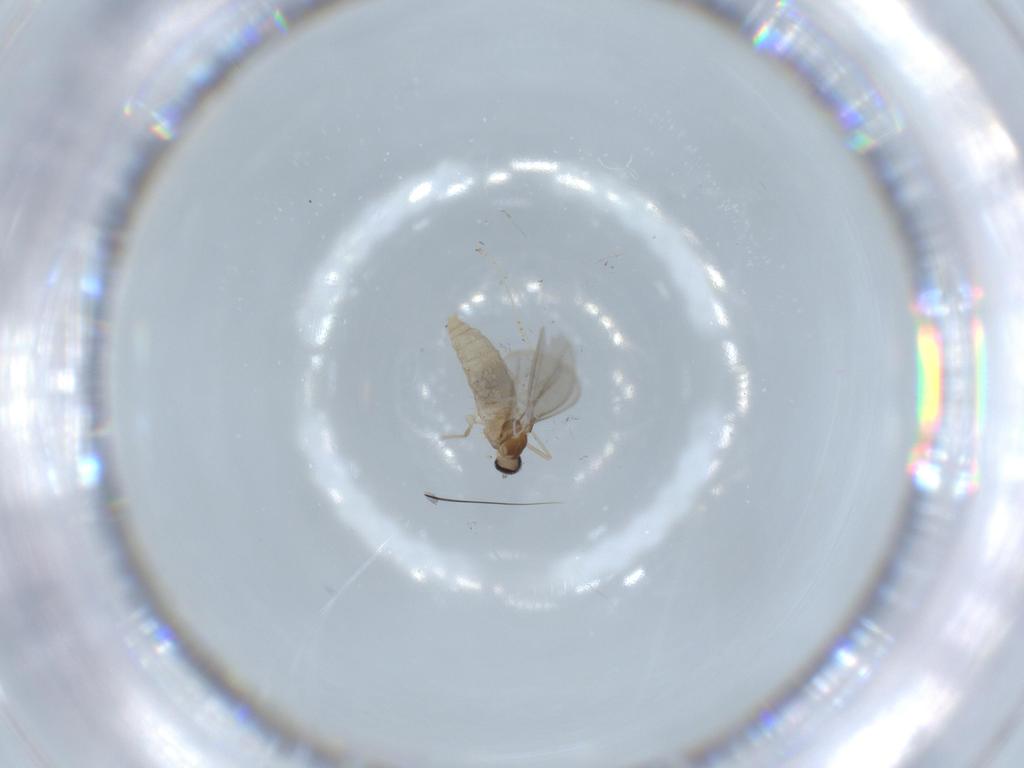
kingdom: Animalia
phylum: Arthropoda
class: Insecta
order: Diptera
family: Cecidomyiidae
